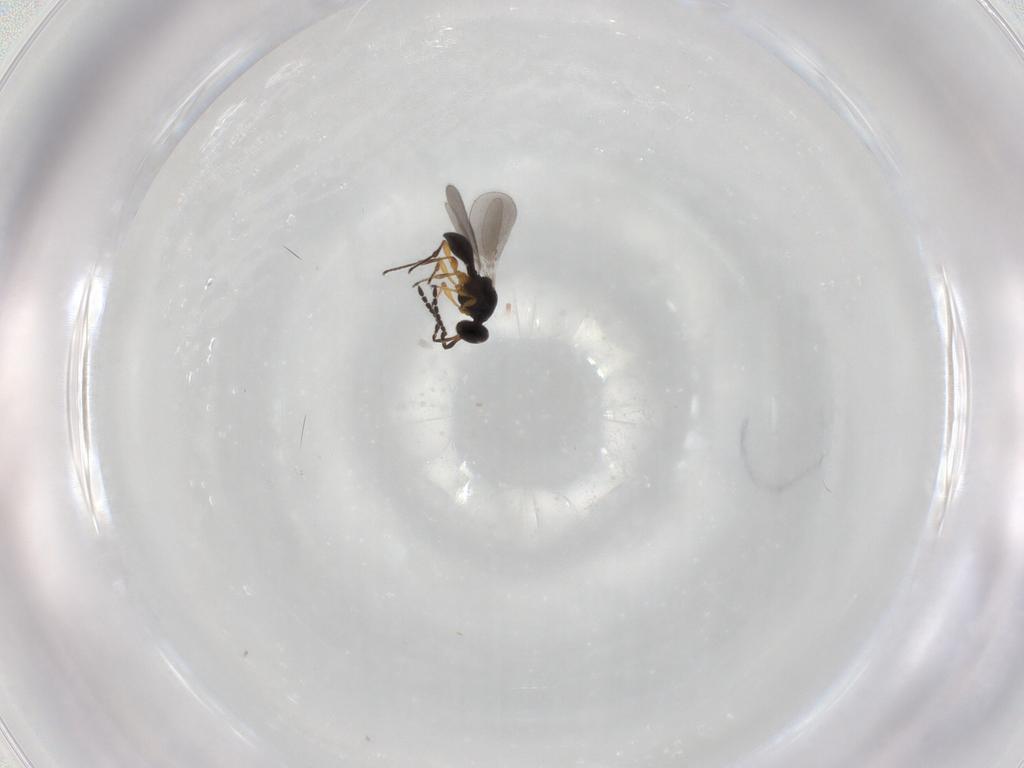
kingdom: Animalia
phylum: Arthropoda
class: Insecta
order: Hymenoptera
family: Platygastridae
